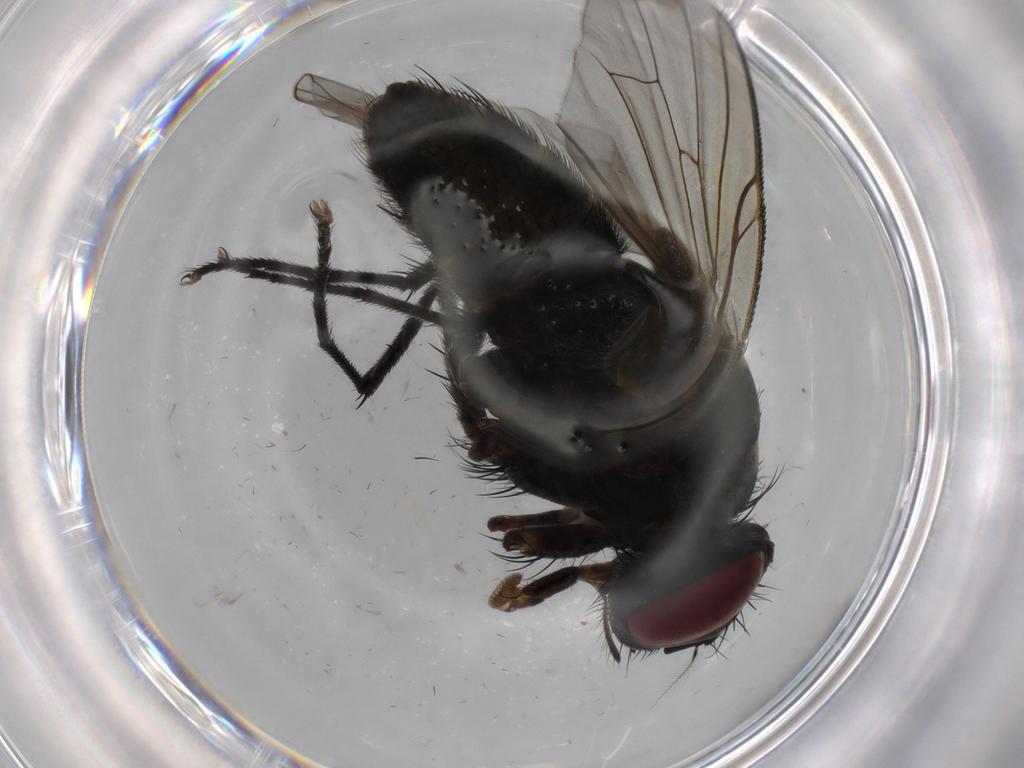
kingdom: Animalia
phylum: Arthropoda
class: Insecta
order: Diptera
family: Muscidae
